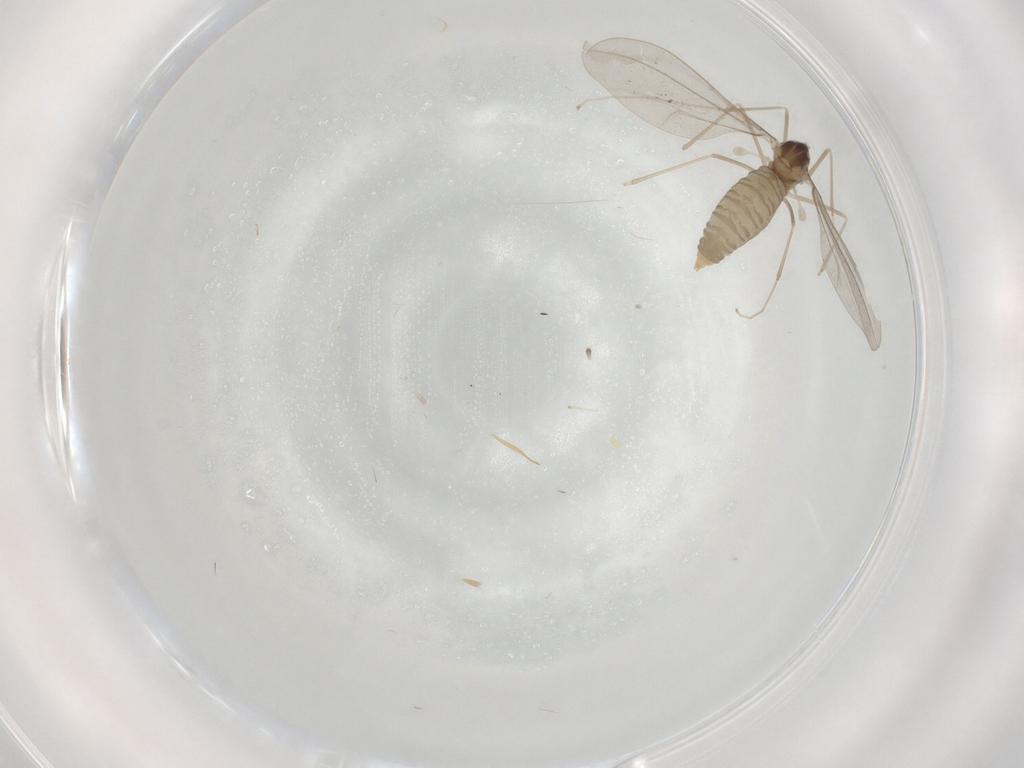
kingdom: Animalia
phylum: Arthropoda
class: Insecta
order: Diptera
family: Cecidomyiidae
